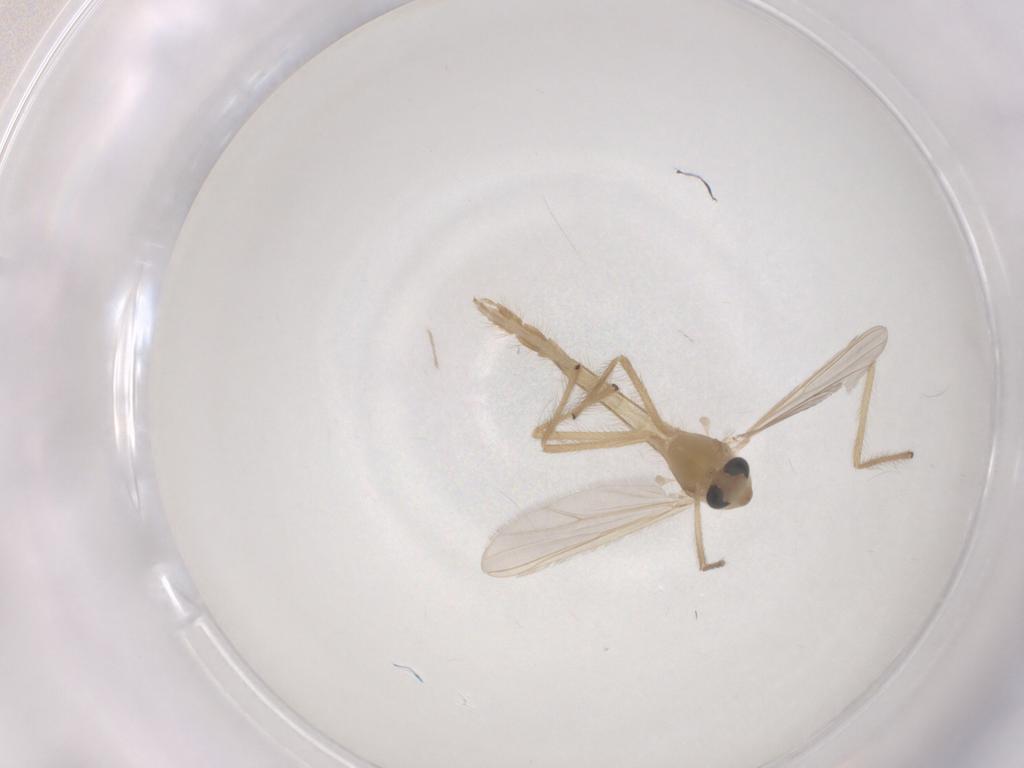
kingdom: Animalia
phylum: Arthropoda
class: Insecta
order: Diptera
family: Chironomidae
